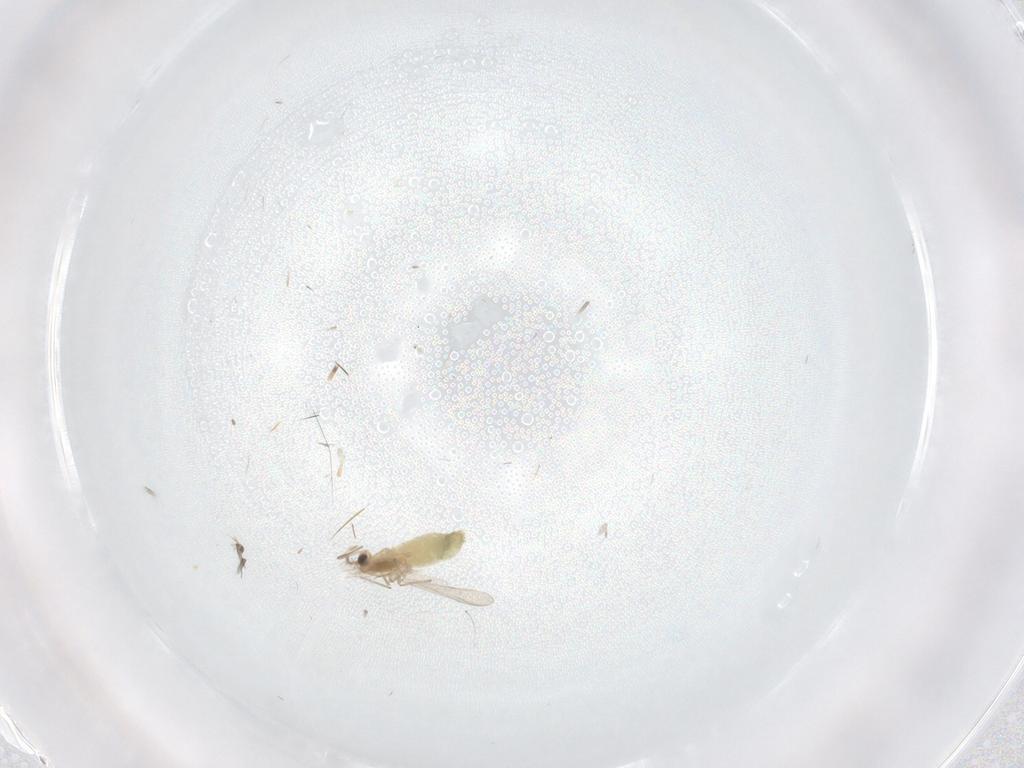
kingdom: Animalia
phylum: Arthropoda
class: Insecta
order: Diptera
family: Chironomidae
